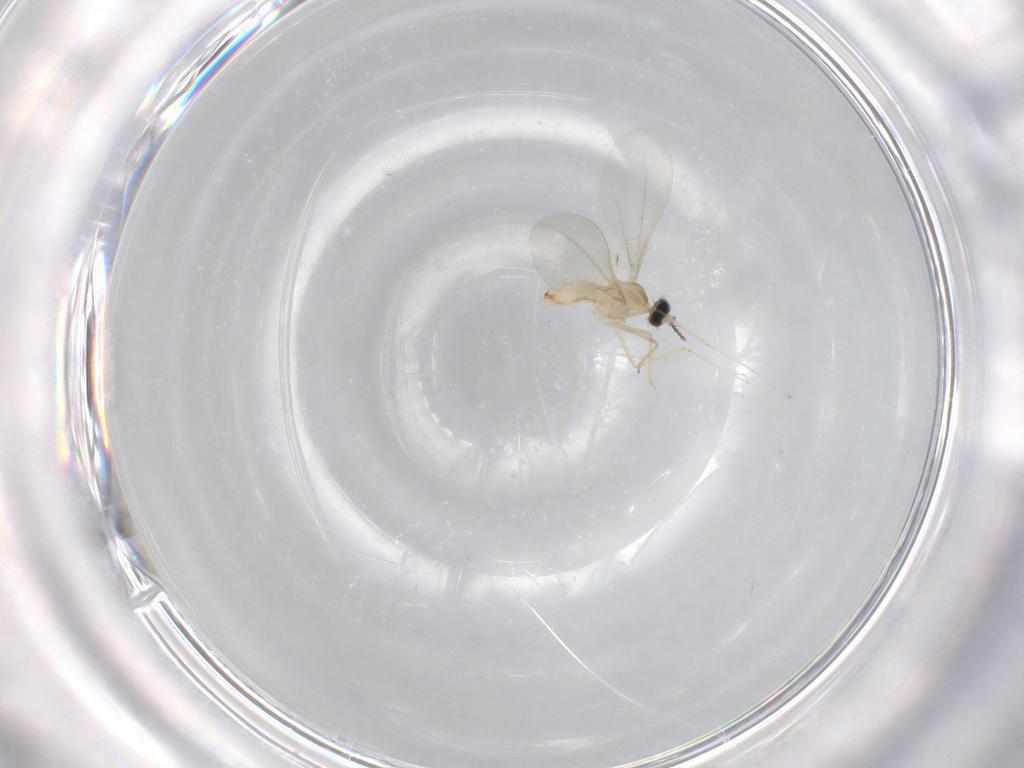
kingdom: Animalia
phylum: Arthropoda
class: Insecta
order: Diptera
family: Cecidomyiidae
